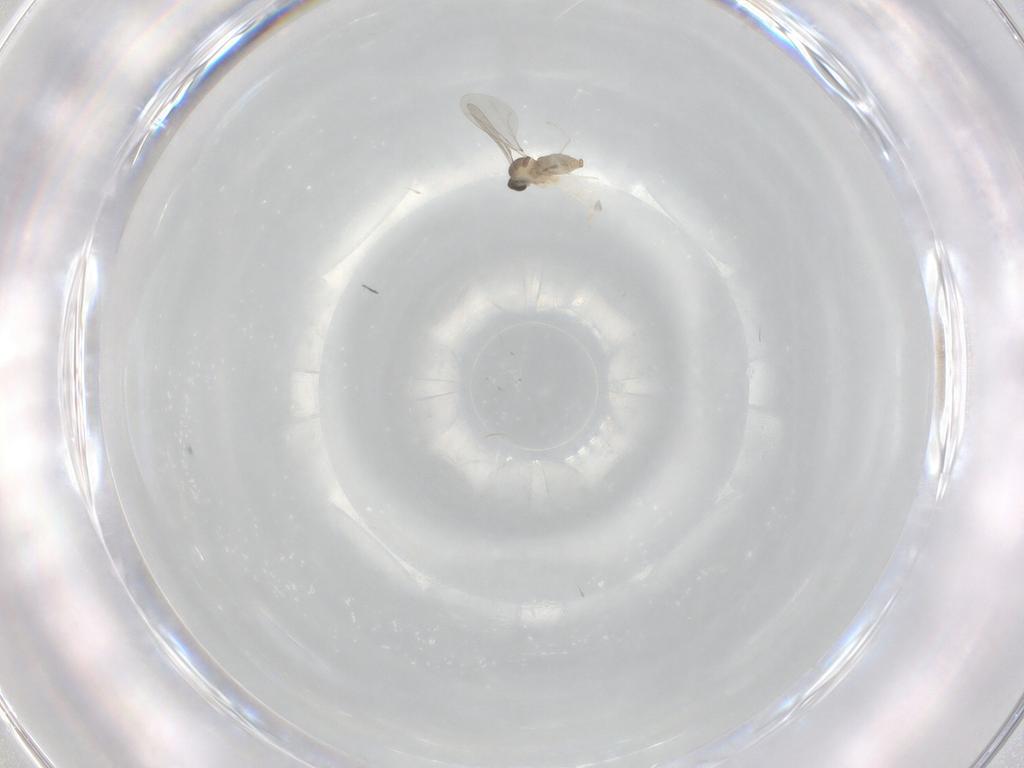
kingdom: Animalia
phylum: Arthropoda
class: Insecta
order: Diptera
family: Cecidomyiidae
